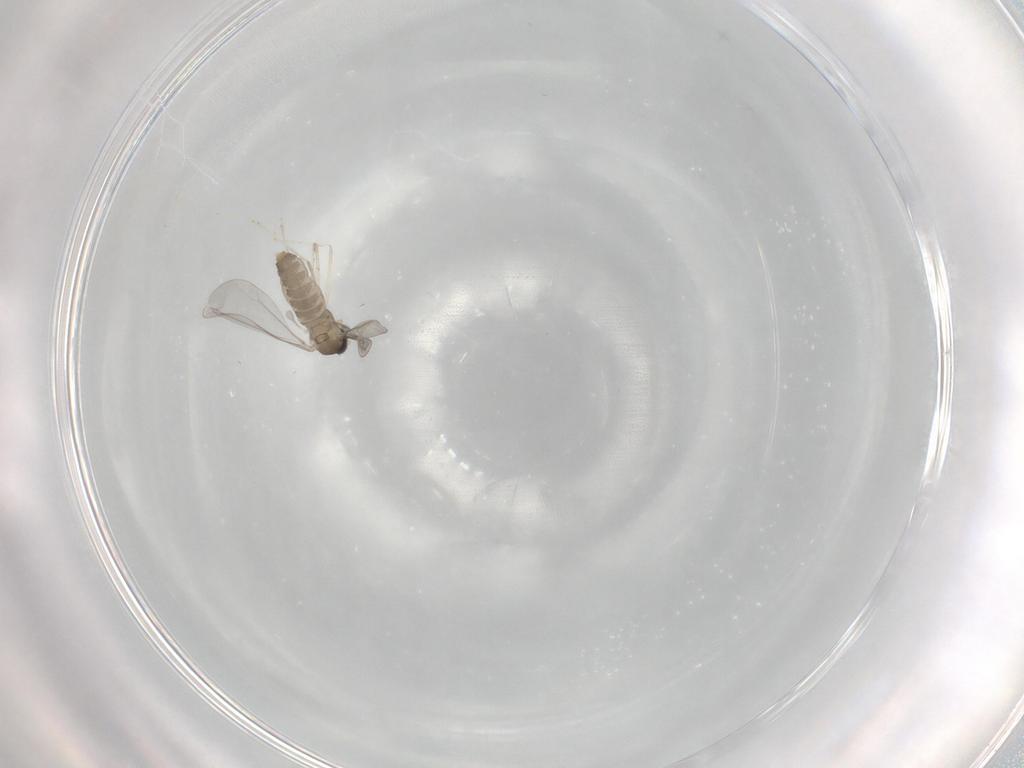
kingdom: Animalia
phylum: Arthropoda
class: Insecta
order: Diptera
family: Cecidomyiidae
